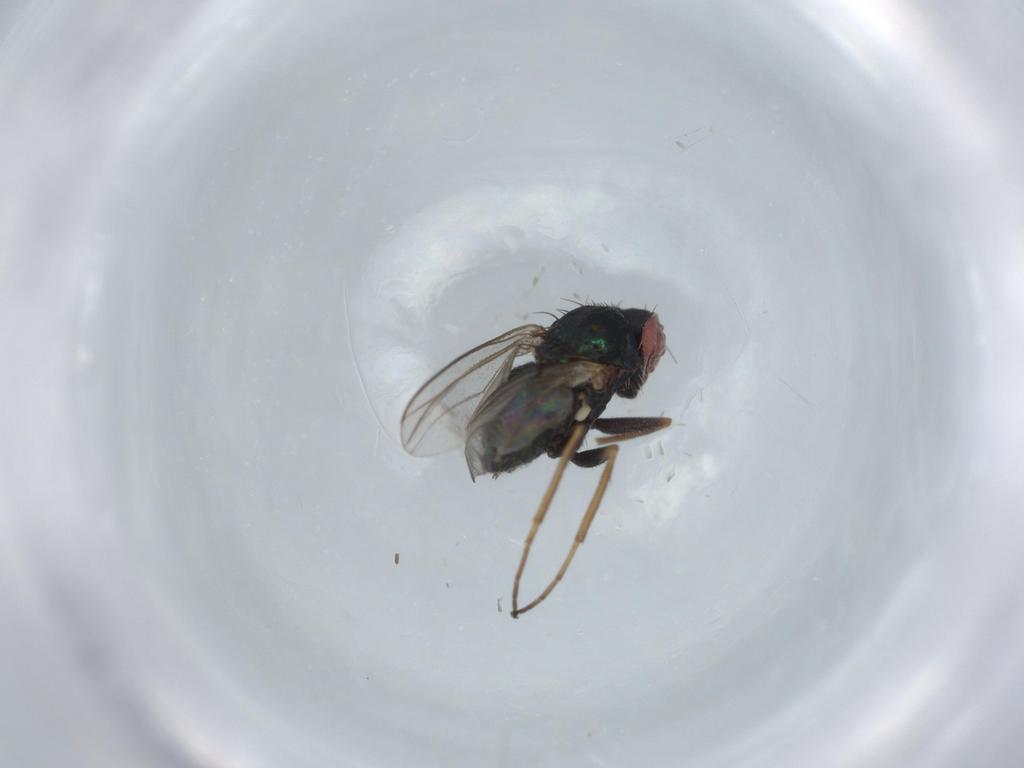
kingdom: Animalia
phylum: Arthropoda
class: Insecta
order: Diptera
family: Dolichopodidae
